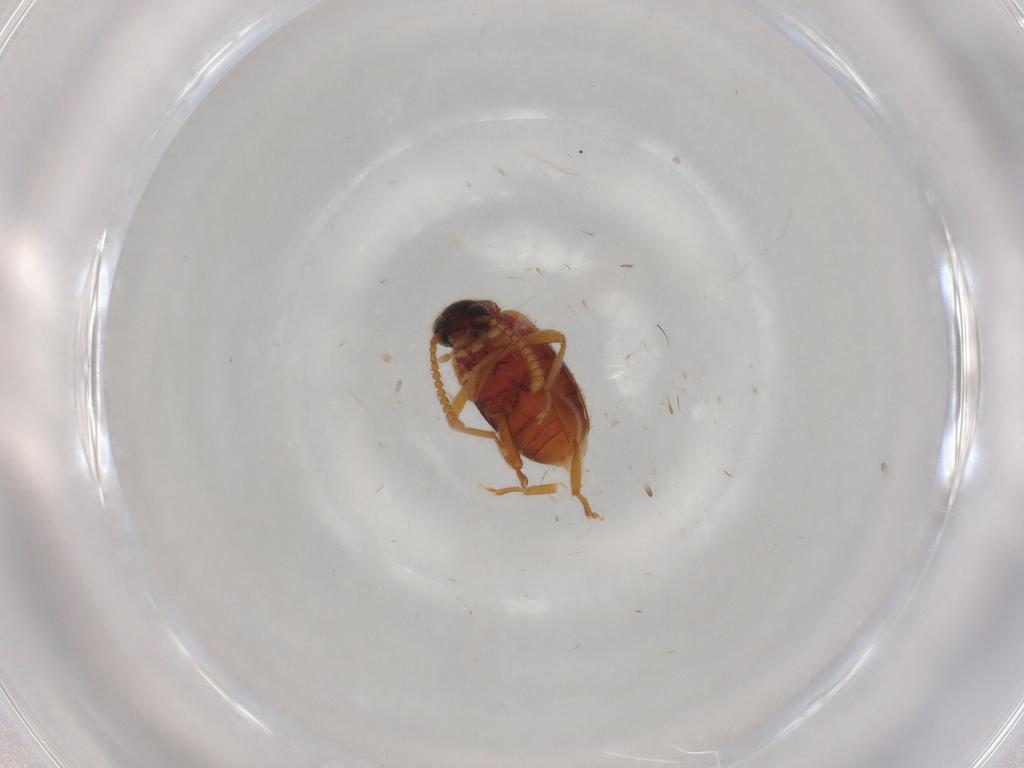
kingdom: Animalia
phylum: Arthropoda
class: Insecta
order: Coleoptera
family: Aderidae
